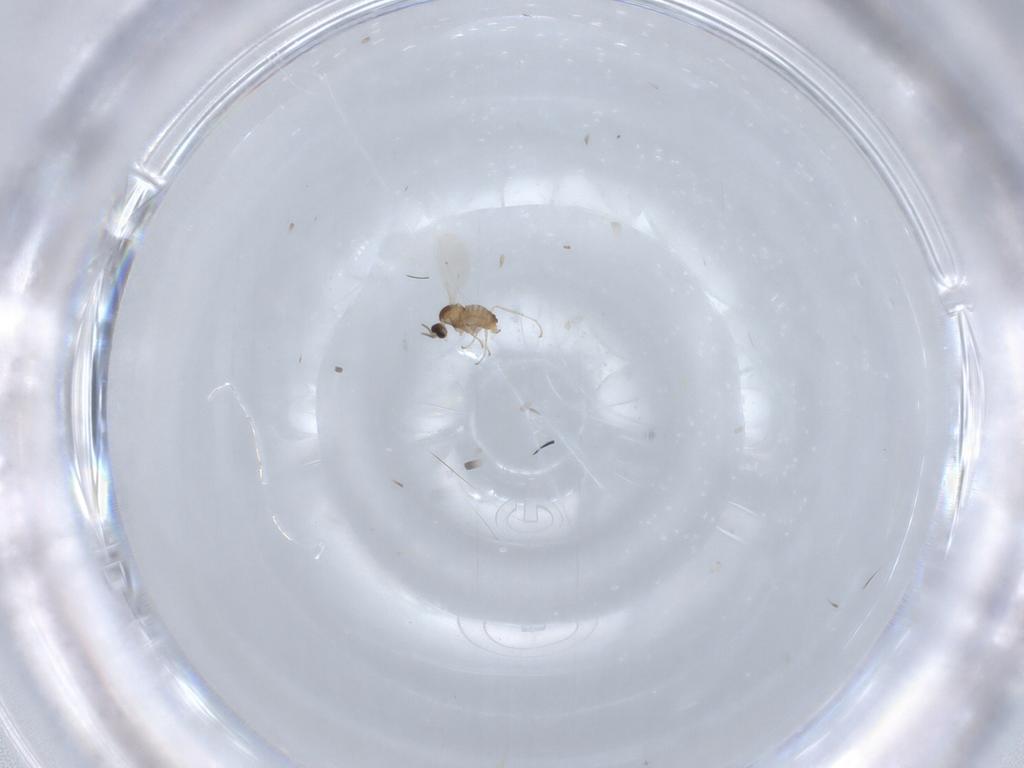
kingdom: Animalia
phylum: Arthropoda
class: Insecta
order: Diptera
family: Cecidomyiidae
